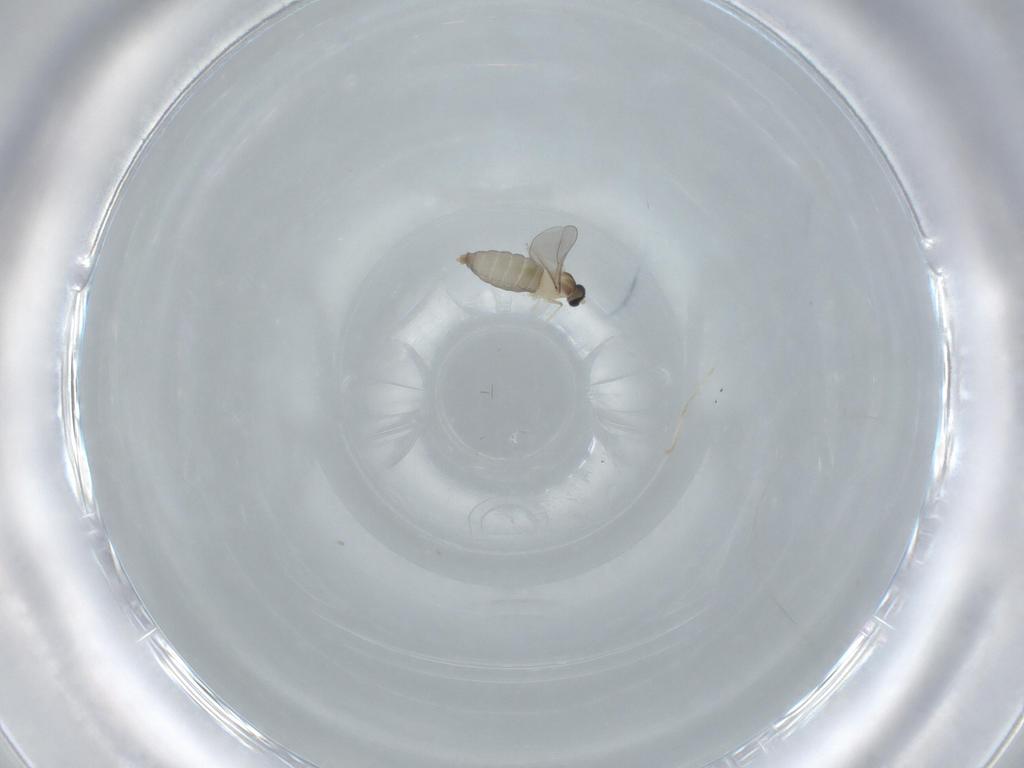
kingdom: Animalia
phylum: Arthropoda
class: Insecta
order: Diptera
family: Cecidomyiidae
